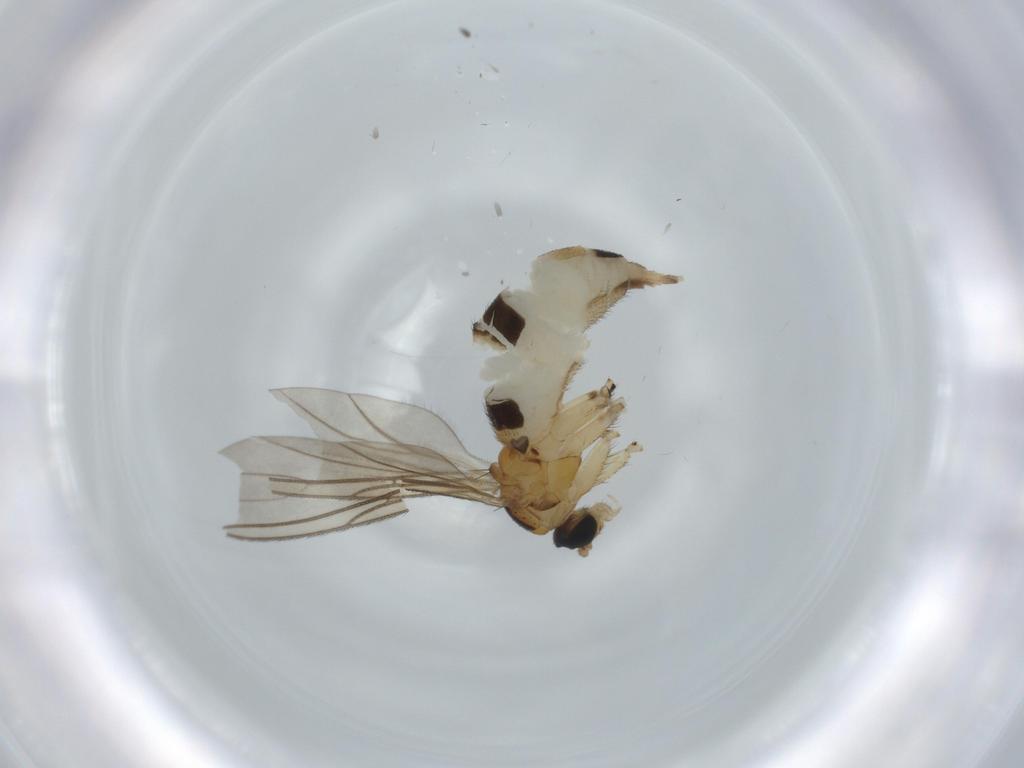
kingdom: Animalia
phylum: Arthropoda
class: Insecta
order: Diptera
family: Sciaridae
